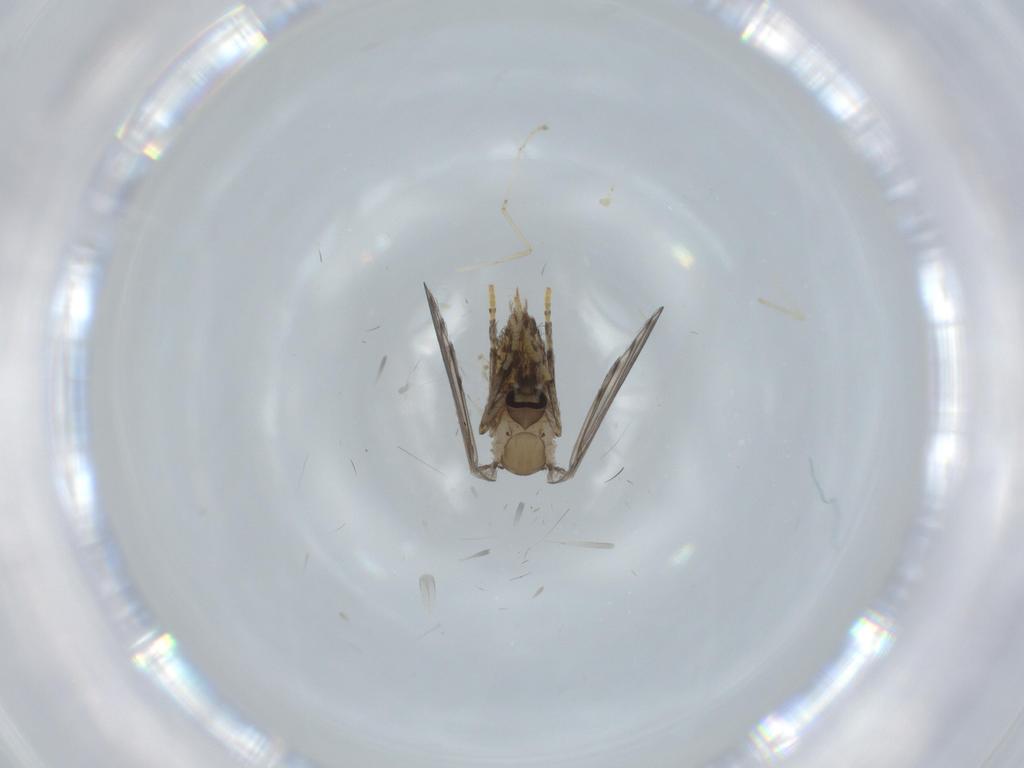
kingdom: Animalia
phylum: Arthropoda
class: Insecta
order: Diptera
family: Psychodidae
